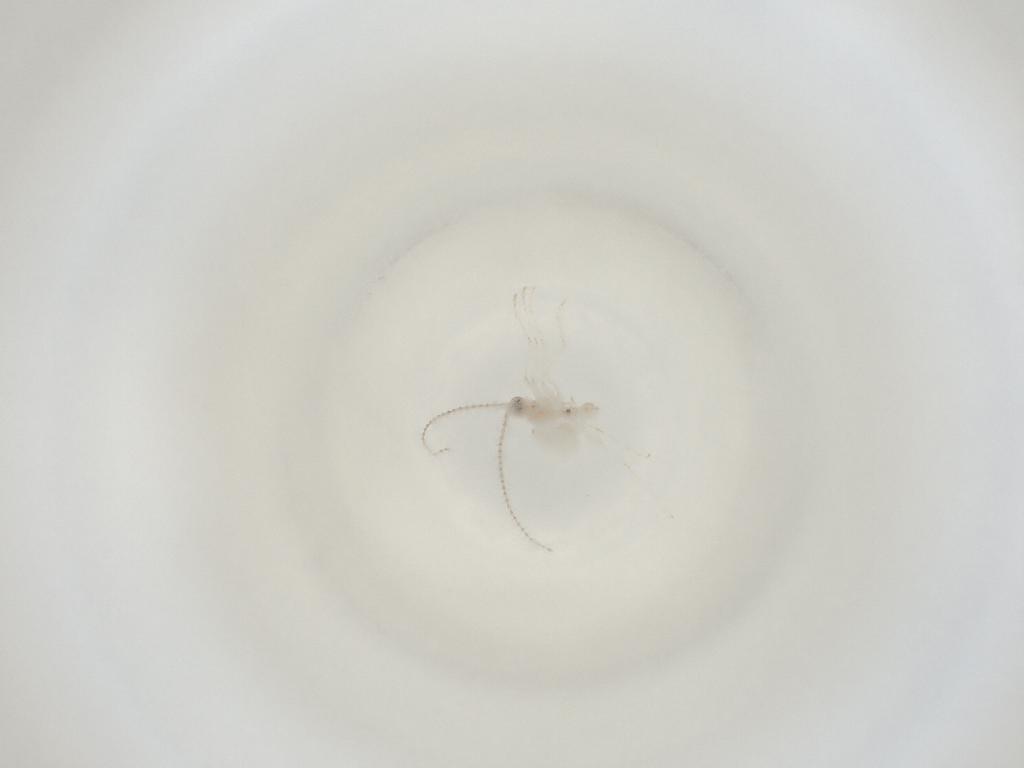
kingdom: Animalia
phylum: Arthropoda
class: Insecta
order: Diptera
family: Cecidomyiidae
